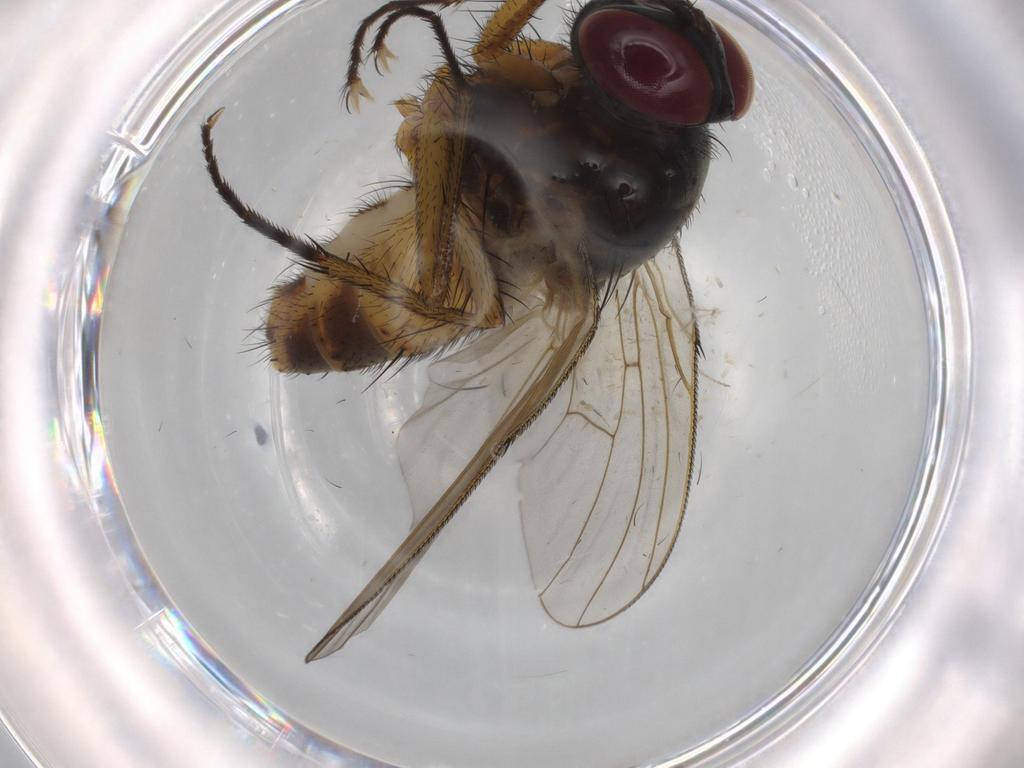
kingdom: Animalia
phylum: Arthropoda
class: Insecta
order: Diptera
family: Muscidae
